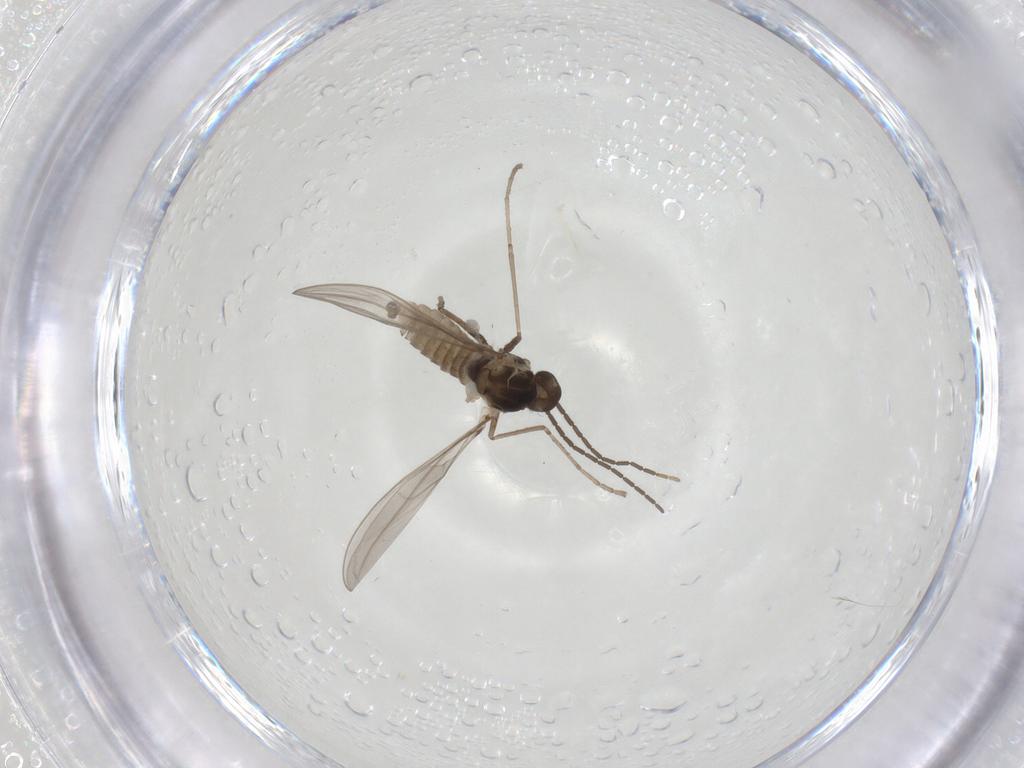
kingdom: Animalia
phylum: Arthropoda
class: Insecta
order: Diptera
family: Cecidomyiidae
